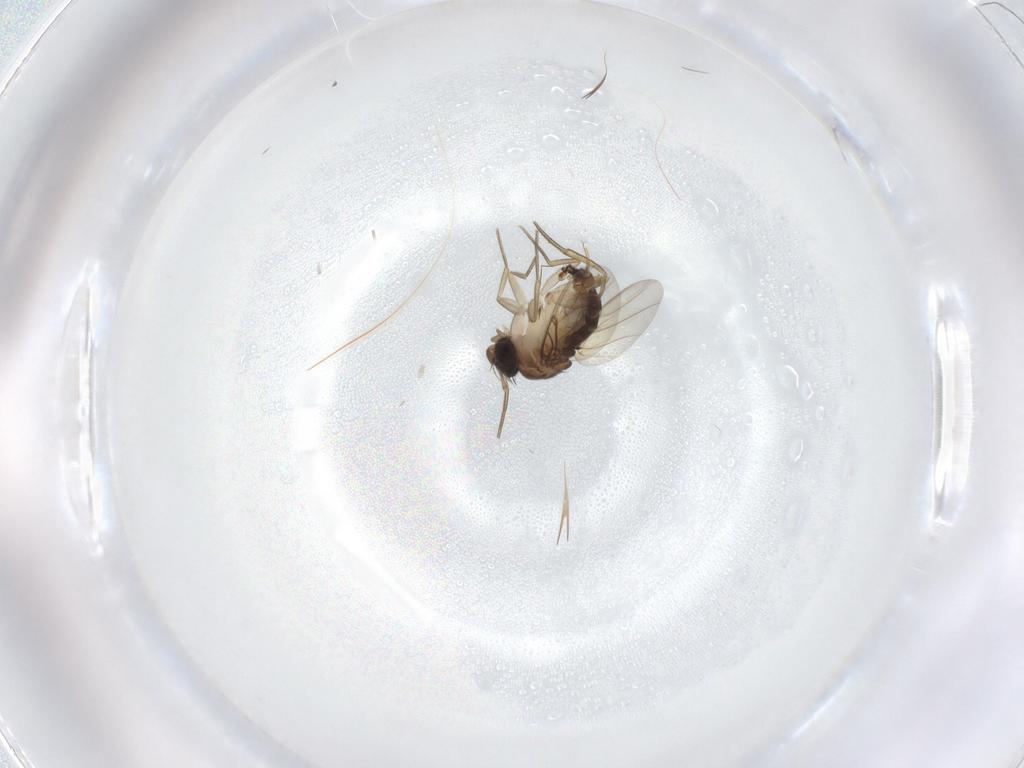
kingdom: Animalia
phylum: Arthropoda
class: Insecta
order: Diptera
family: Phoridae
